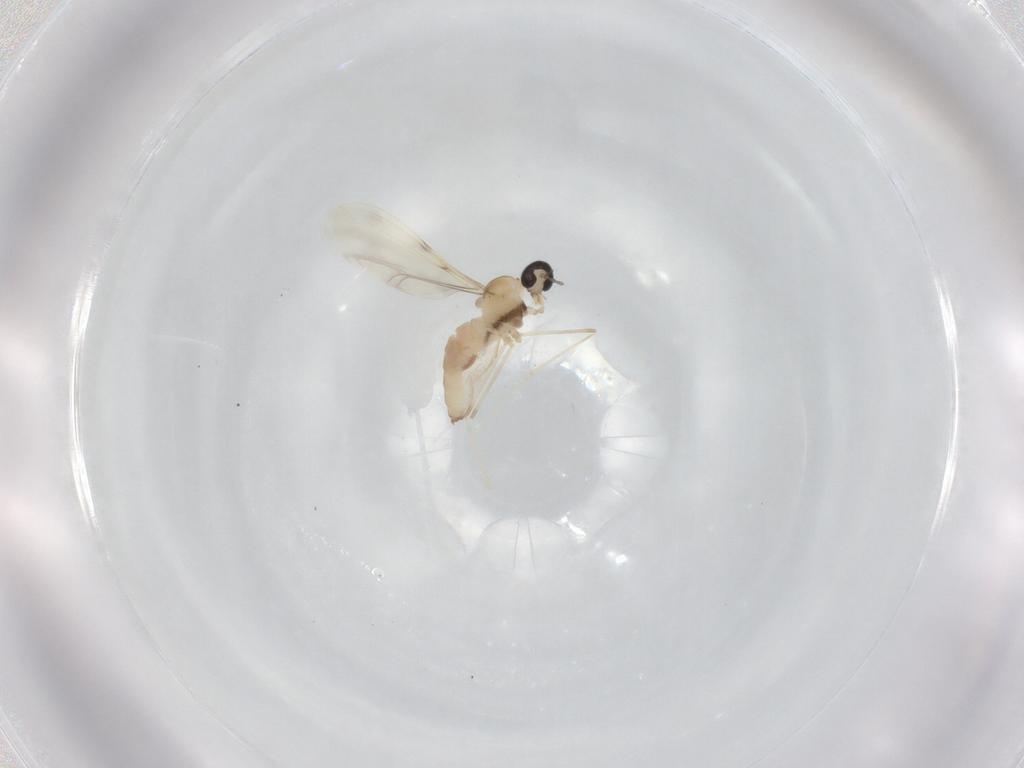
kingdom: Animalia
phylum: Arthropoda
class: Insecta
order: Diptera
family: Cecidomyiidae
